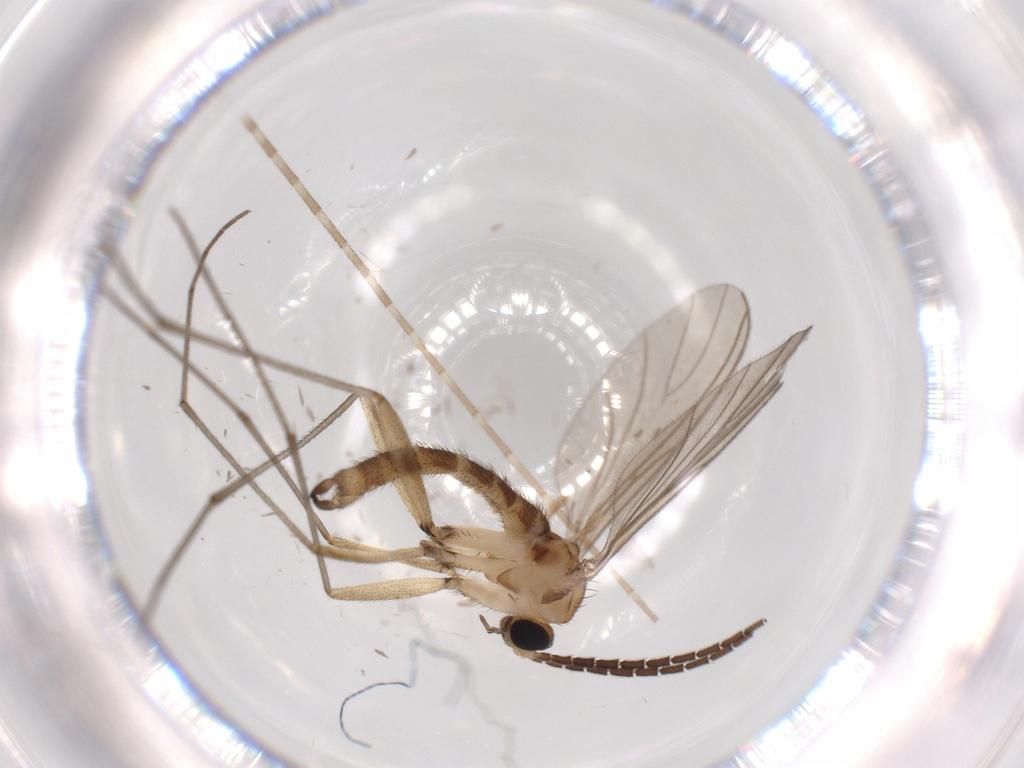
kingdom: Animalia
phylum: Arthropoda
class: Insecta
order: Diptera
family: Sciaridae
